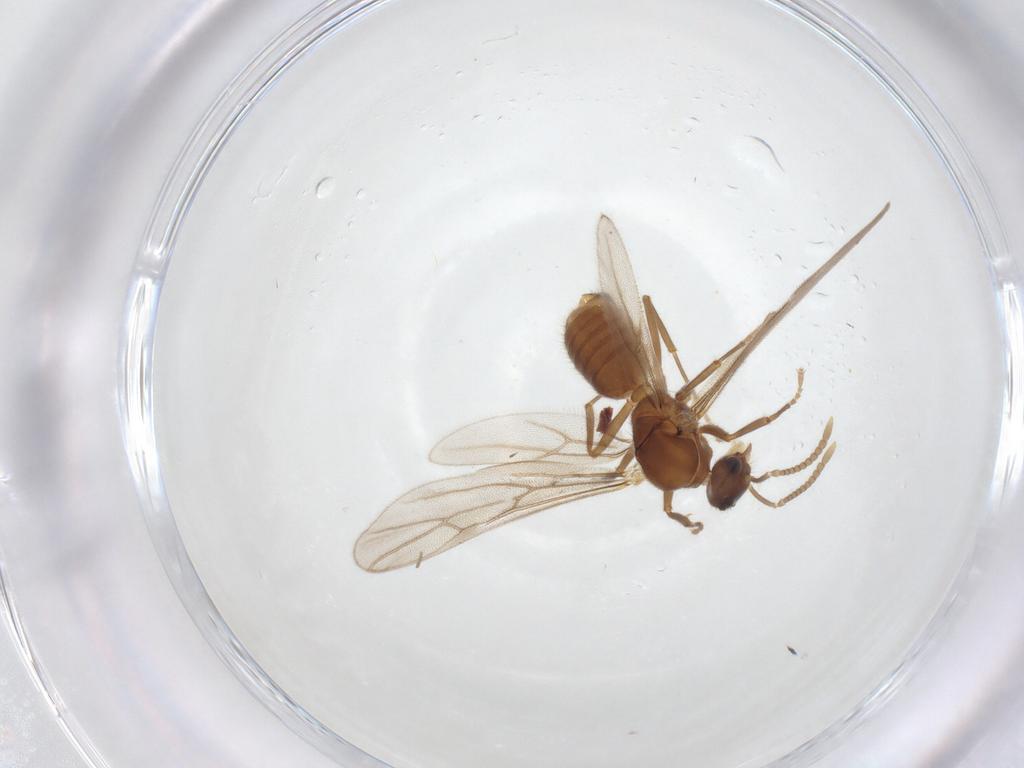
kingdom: Animalia
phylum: Arthropoda
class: Insecta
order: Hymenoptera
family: Formicidae
